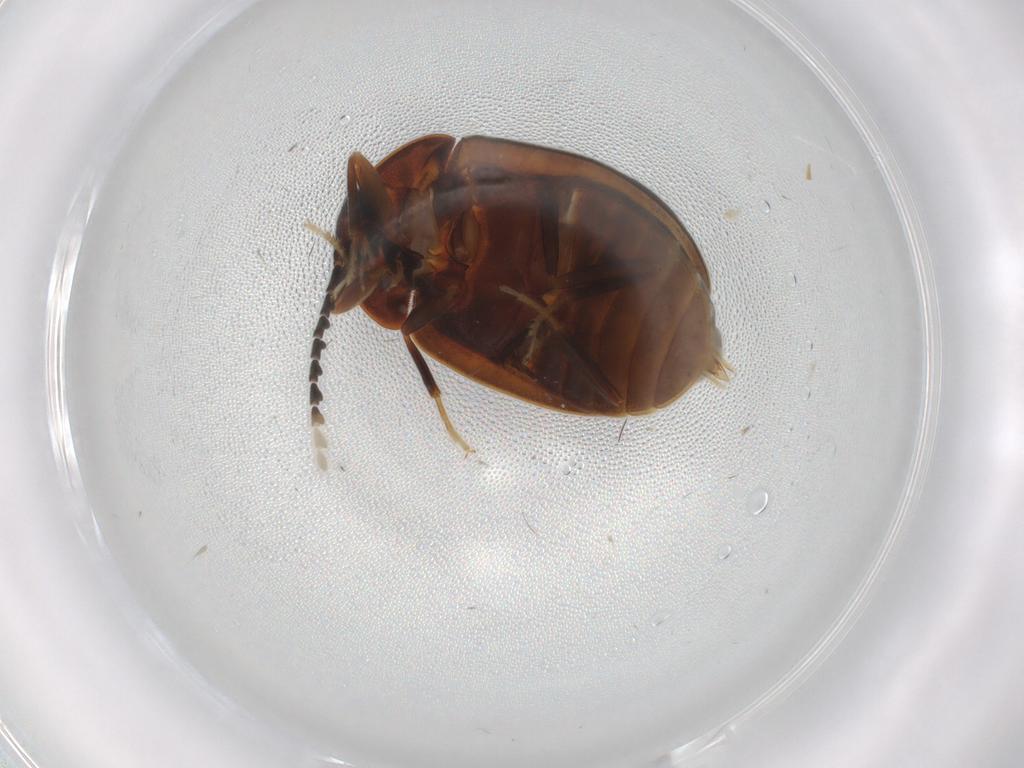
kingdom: Animalia
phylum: Arthropoda
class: Insecta
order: Coleoptera
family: Psephenidae
